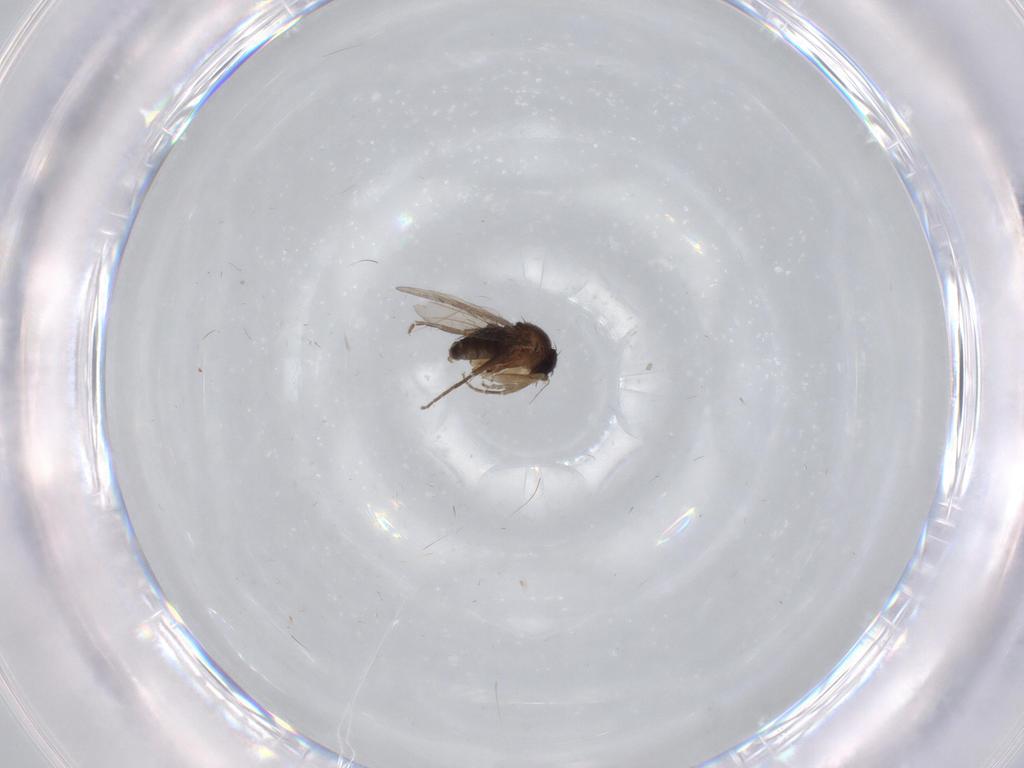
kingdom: Animalia
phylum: Arthropoda
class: Insecta
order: Diptera
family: Phoridae
